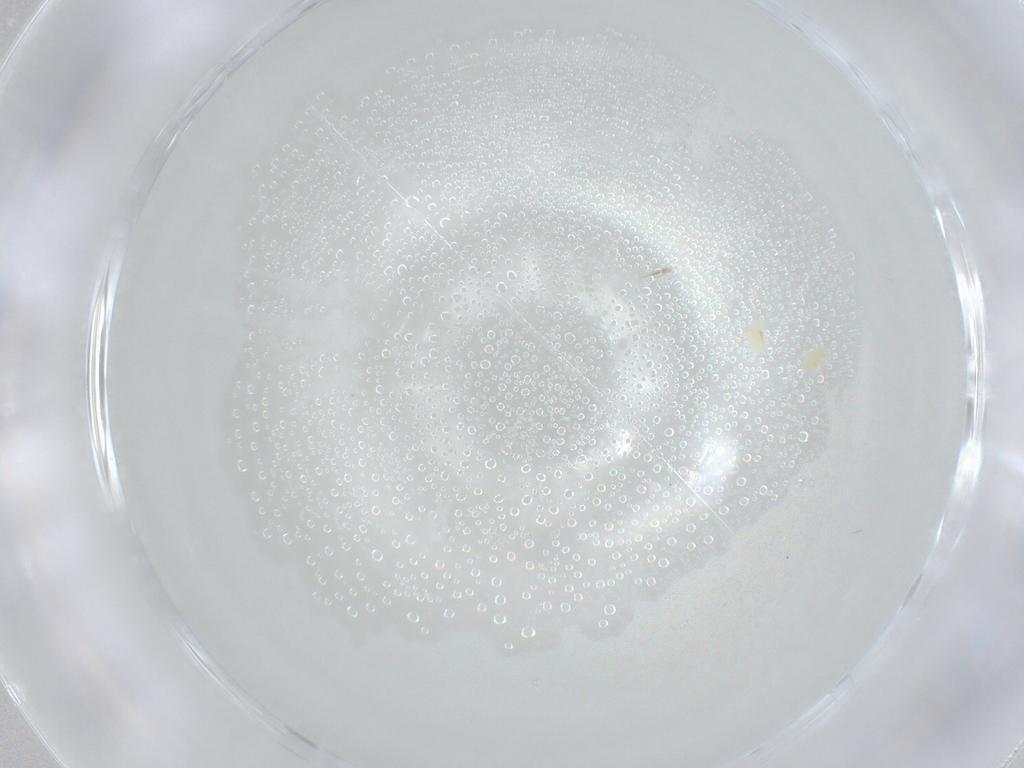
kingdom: Animalia
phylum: Arthropoda
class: Insecta
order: Orthoptera
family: Mogoplistidae
